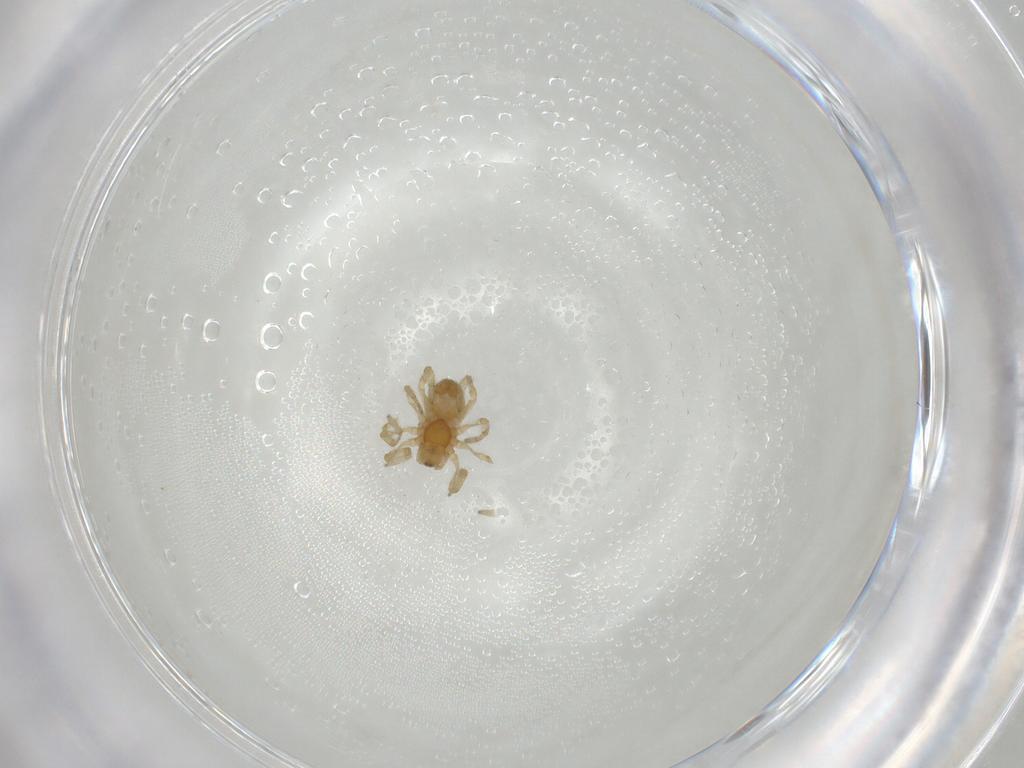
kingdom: Animalia
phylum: Arthropoda
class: Arachnida
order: Araneae
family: Dictynidae
